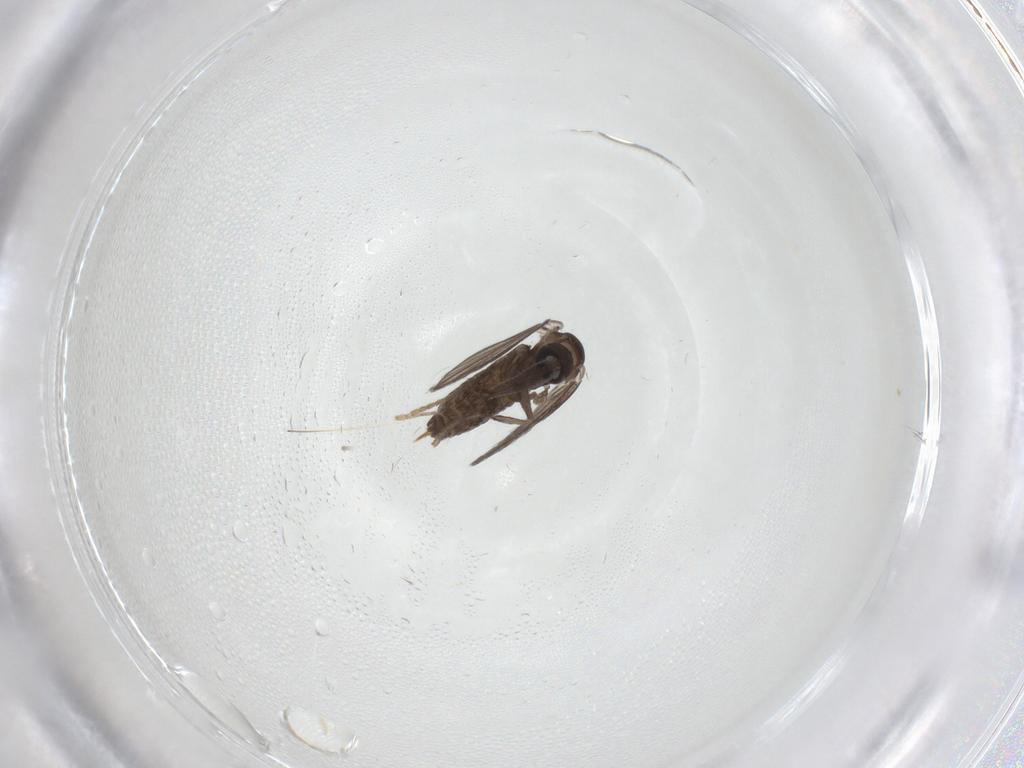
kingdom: Animalia
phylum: Arthropoda
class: Insecta
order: Diptera
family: Psychodidae
